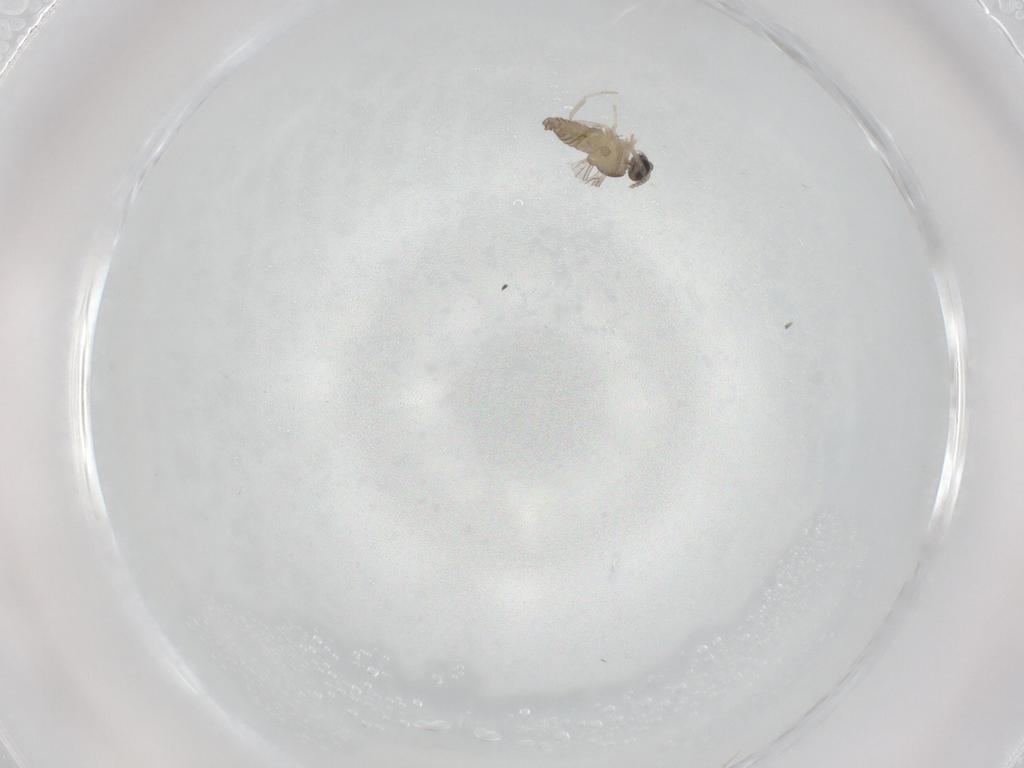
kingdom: Animalia
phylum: Arthropoda
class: Insecta
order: Diptera
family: Cecidomyiidae
